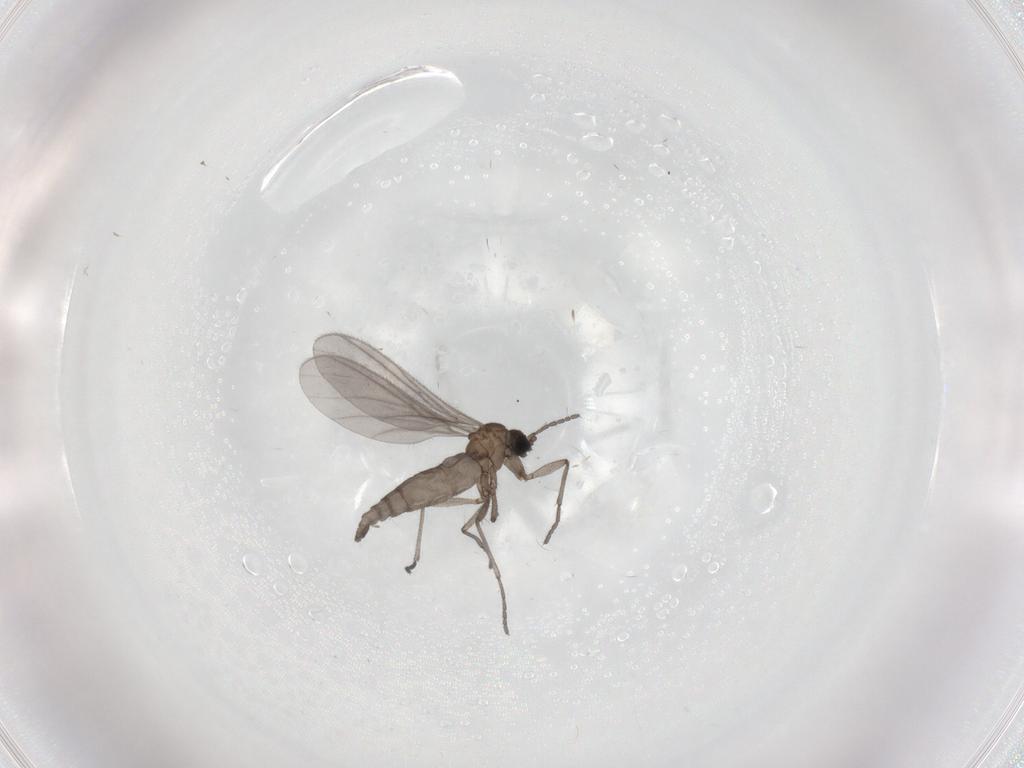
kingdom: Animalia
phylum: Arthropoda
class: Insecta
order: Diptera
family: Sciaridae
